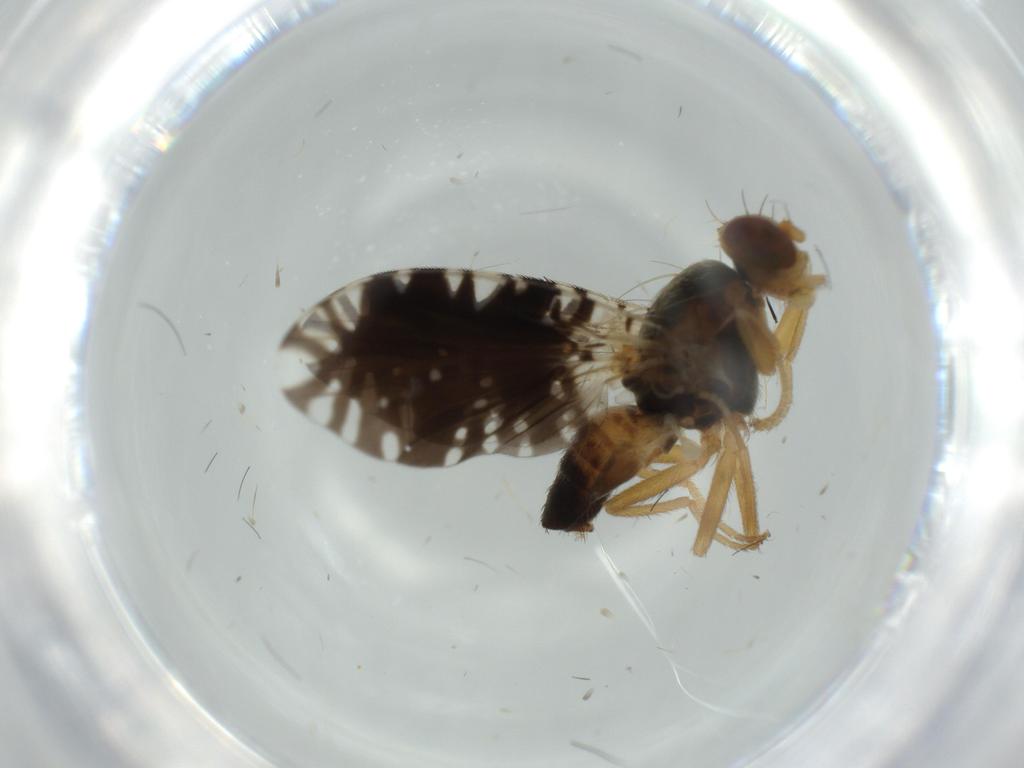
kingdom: Animalia
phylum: Arthropoda
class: Insecta
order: Diptera
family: Tephritidae
